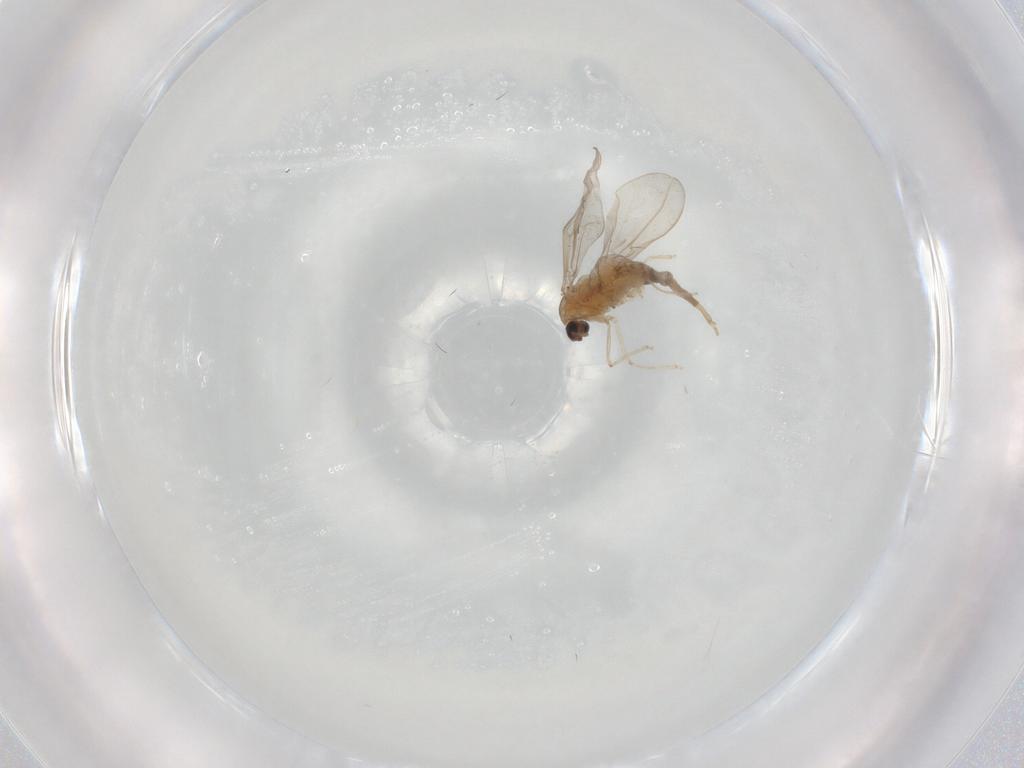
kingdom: Animalia
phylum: Arthropoda
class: Insecta
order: Diptera
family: Cecidomyiidae
